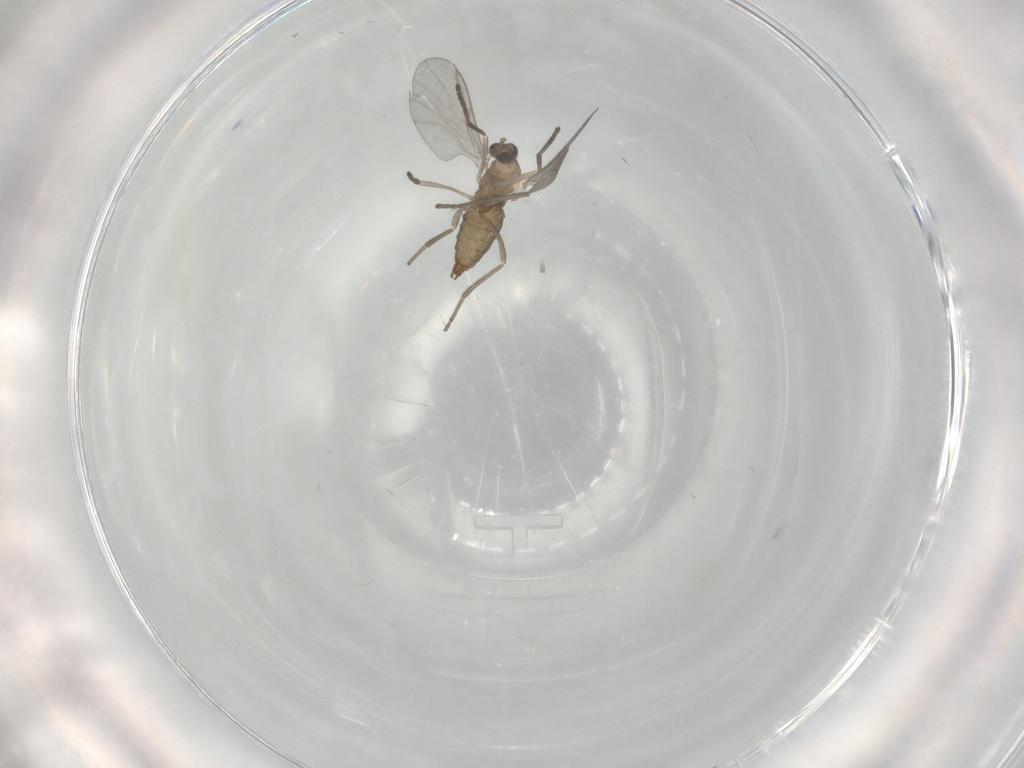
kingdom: Animalia
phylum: Arthropoda
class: Insecta
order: Diptera
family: Cecidomyiidae
